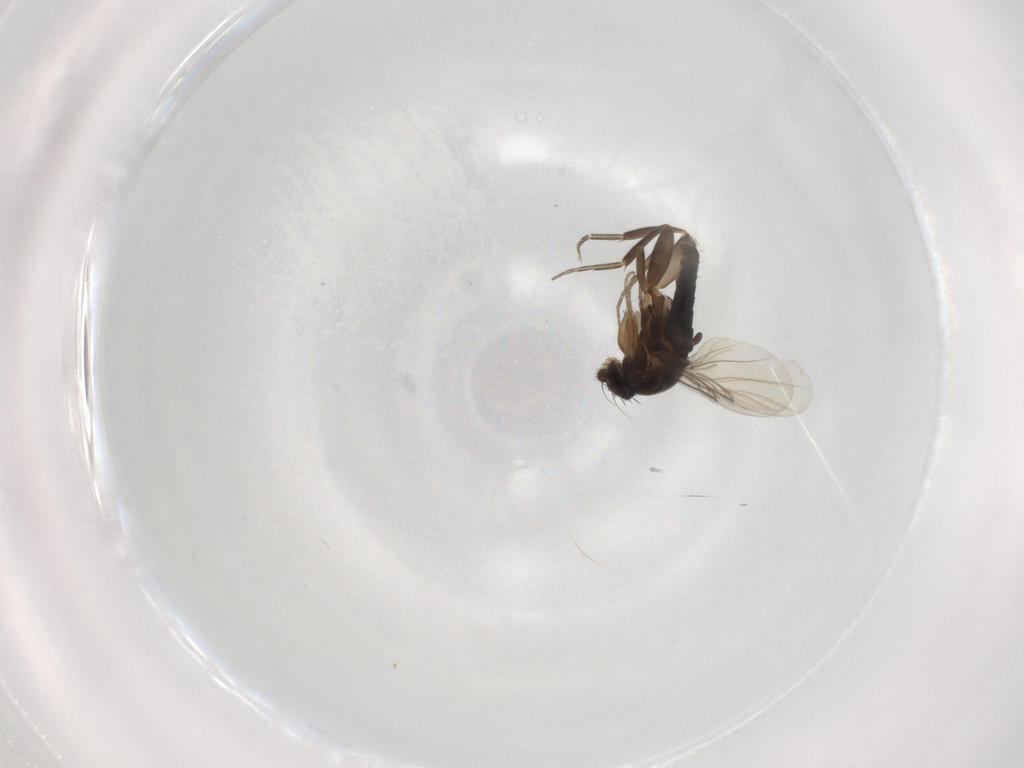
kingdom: Animalia
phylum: Arthropoda
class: Insecta
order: Diptera
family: Phoridae
